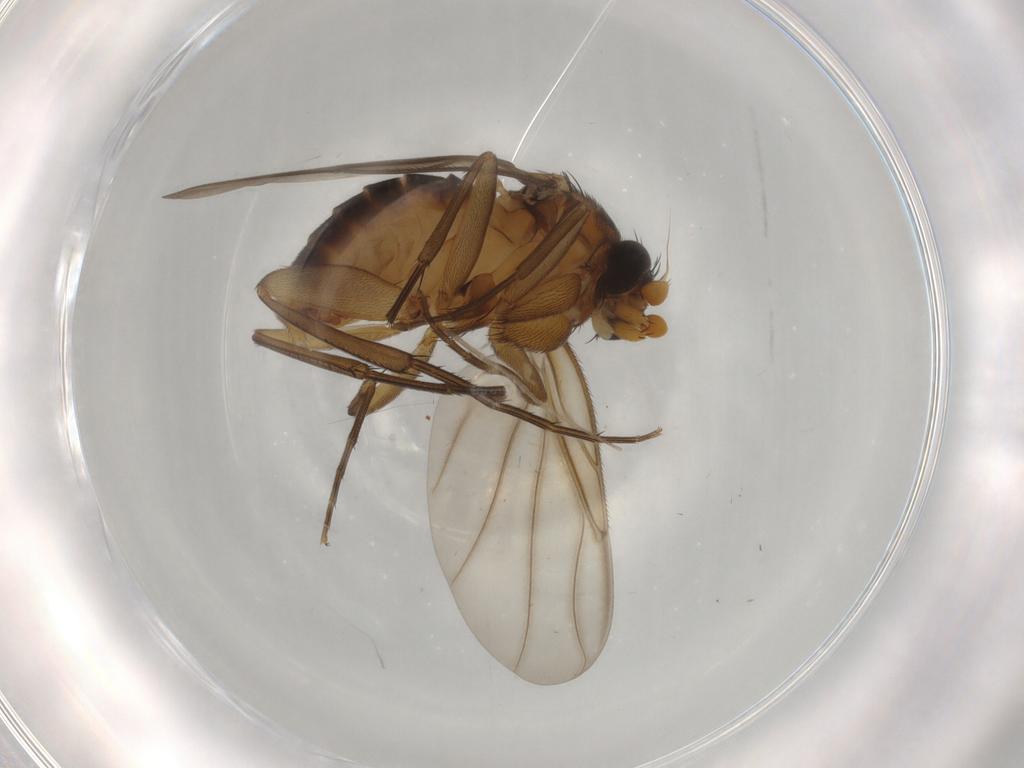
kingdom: Animalia
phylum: Arthropoda
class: Insecta
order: Diptera
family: Phoridae
